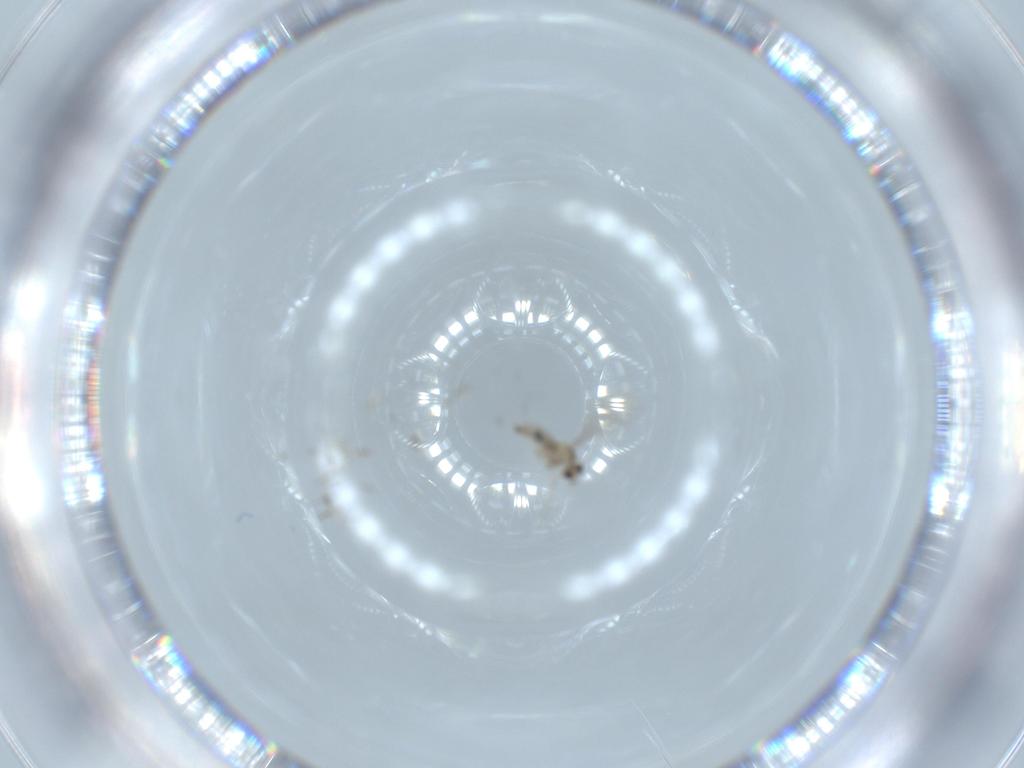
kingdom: Animalia
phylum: Arthropoda
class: Insecta
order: Diptera
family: Cecidomyiidae
